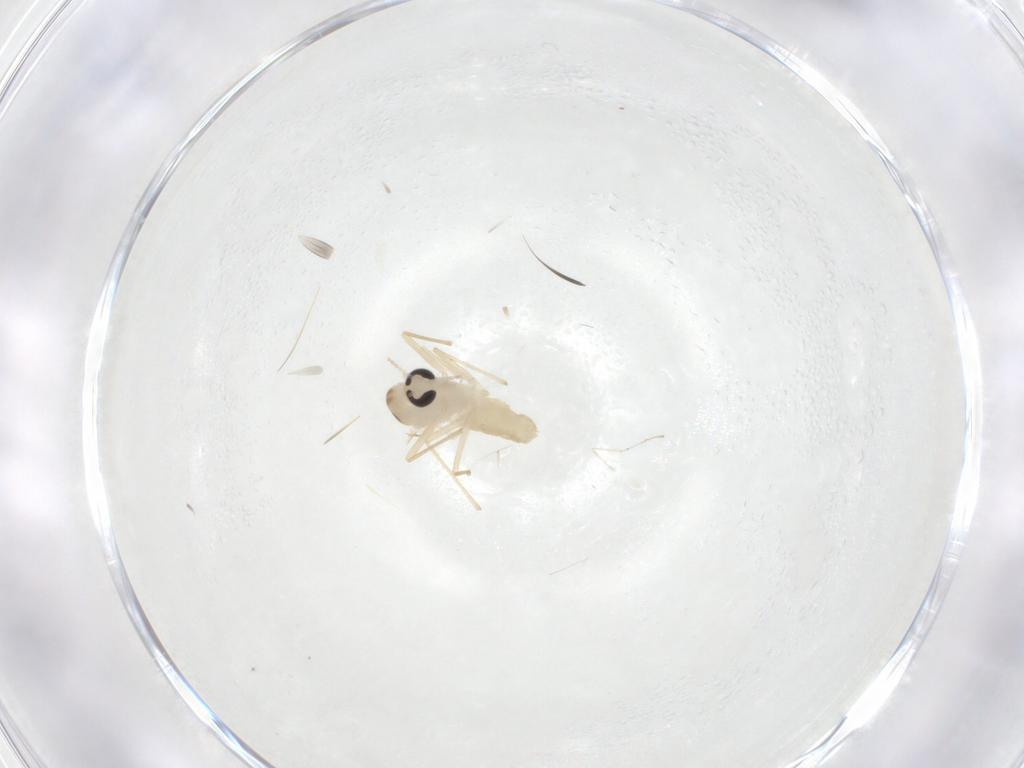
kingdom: Animalia
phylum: Arthropoda
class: Insecta
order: Diptera
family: Chironomidae
